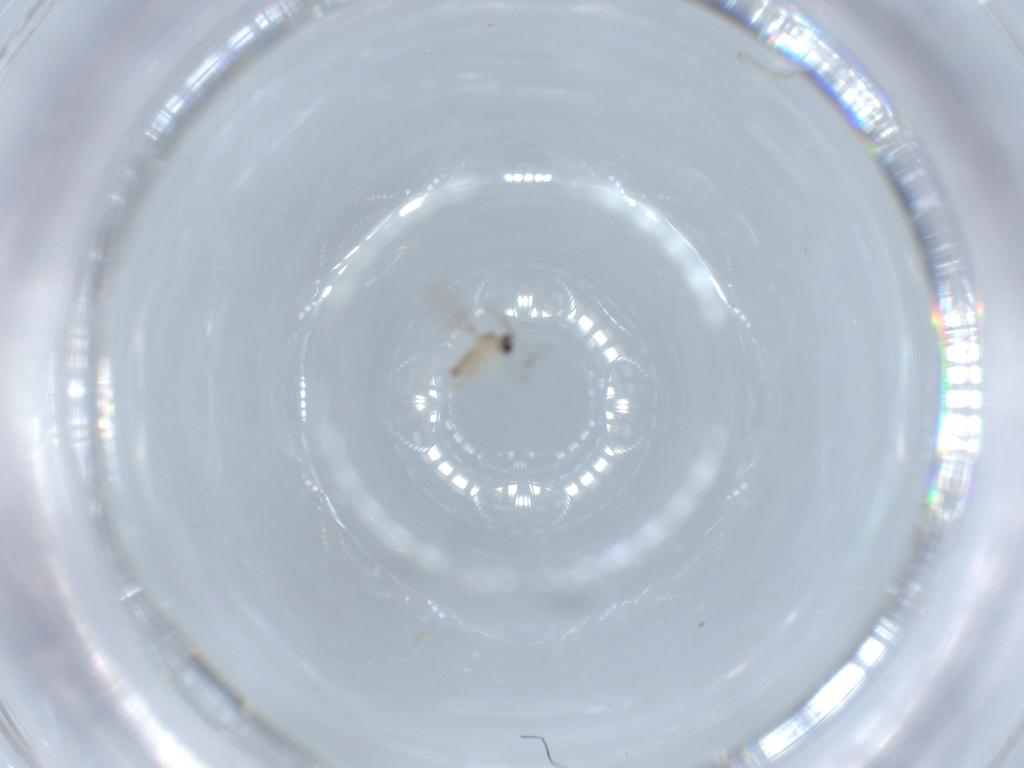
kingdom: Animalia
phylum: Arthropoda
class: Insecta
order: Diptera
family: Cecidomyiidae
